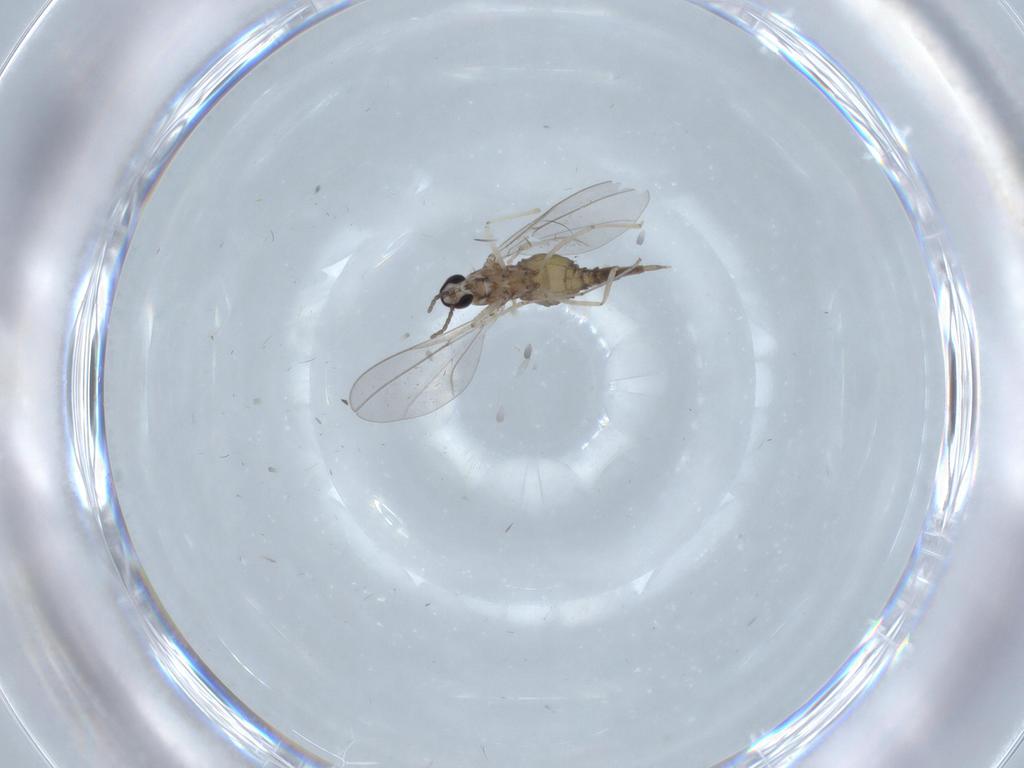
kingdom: Animalia
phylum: Arthropoda
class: Insecta
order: Diptera
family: Cecidomyiidae
